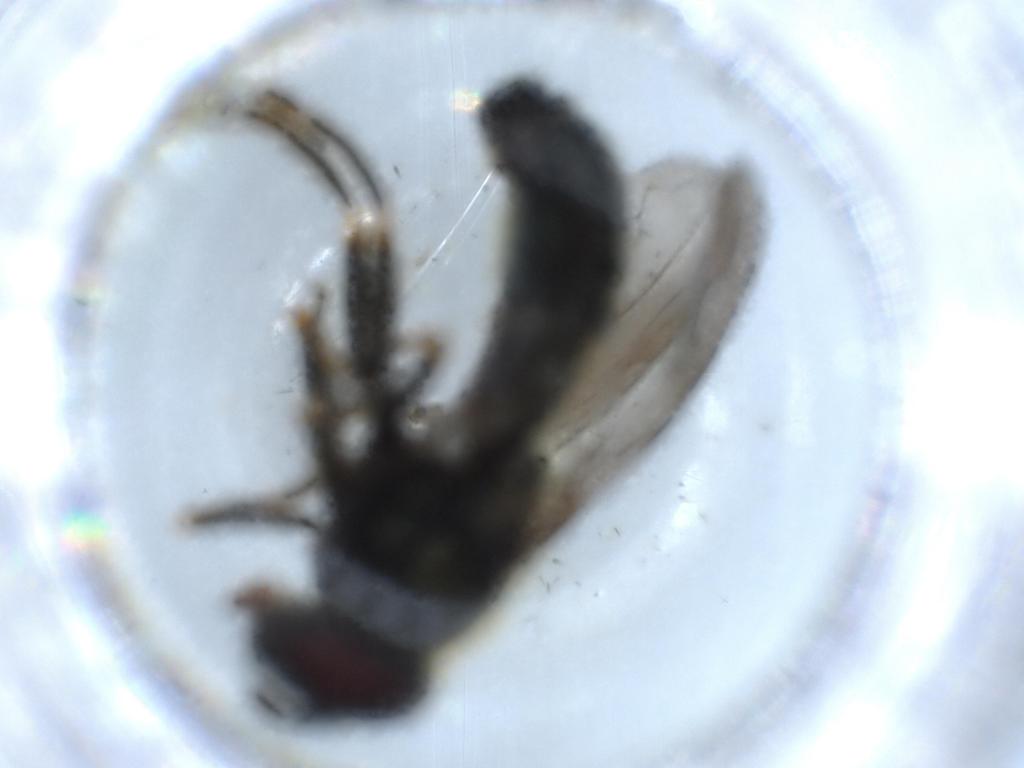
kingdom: Animalia
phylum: Arthropoda
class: Insecta
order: Diptera
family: Syrphidae
